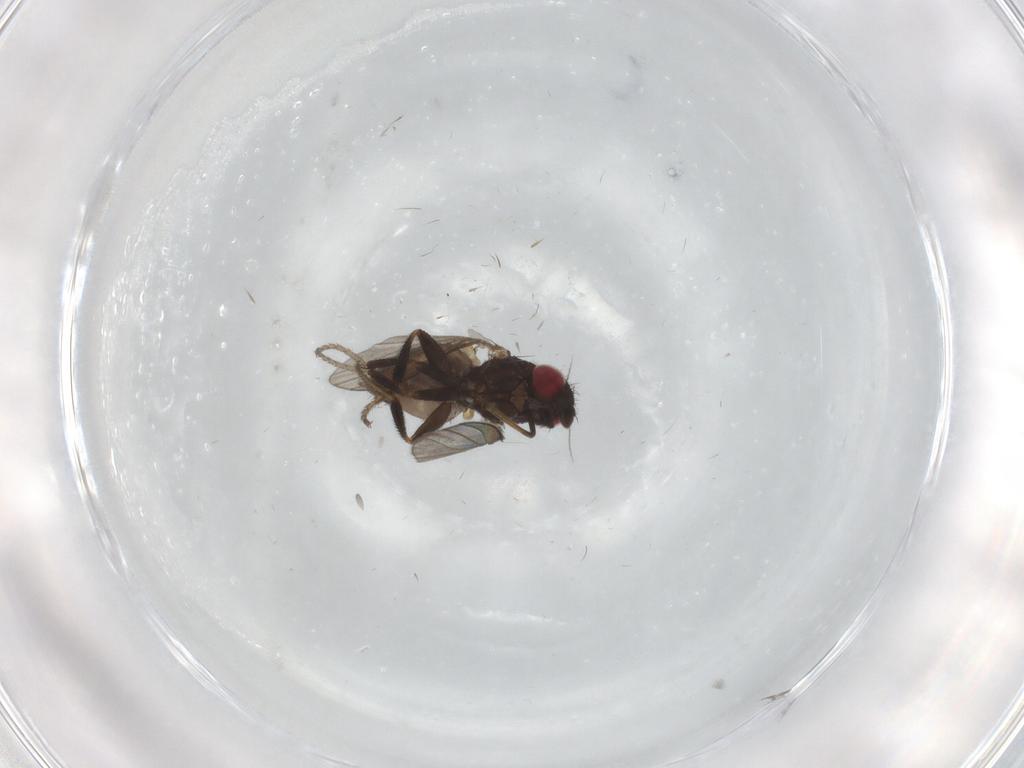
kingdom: Animalia
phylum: Arthropoda
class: Insecta
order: Diptera
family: Milichiidae
